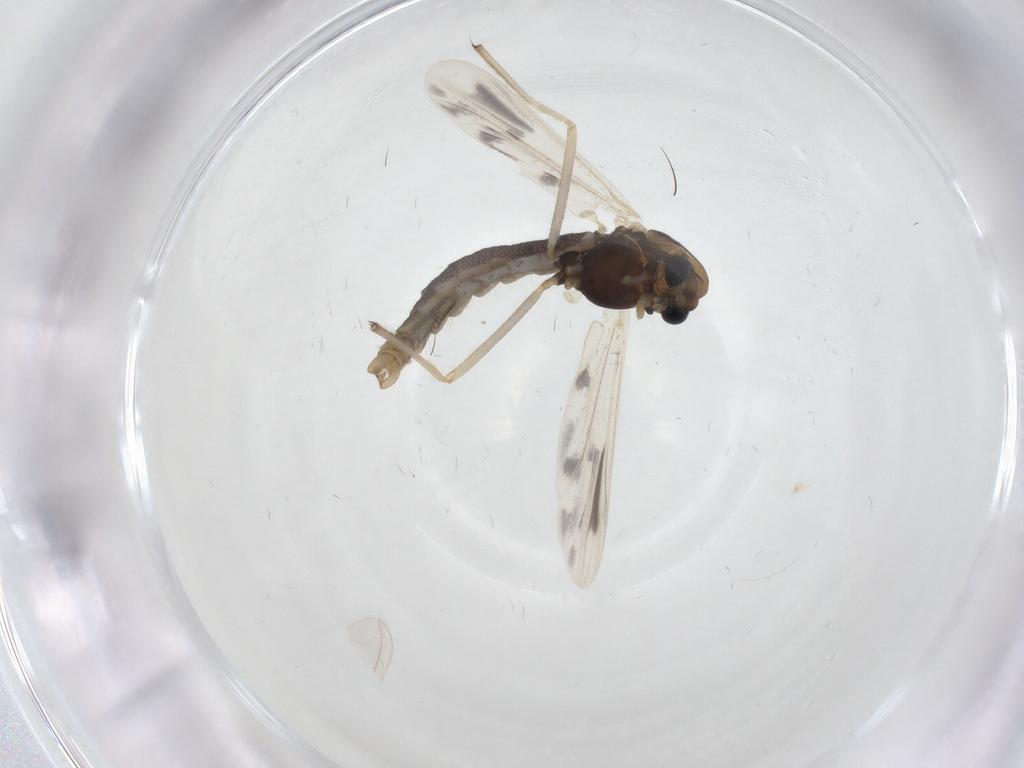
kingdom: Animalia
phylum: Arthropoda
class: Insecta
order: Diptera
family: Chironomidae
